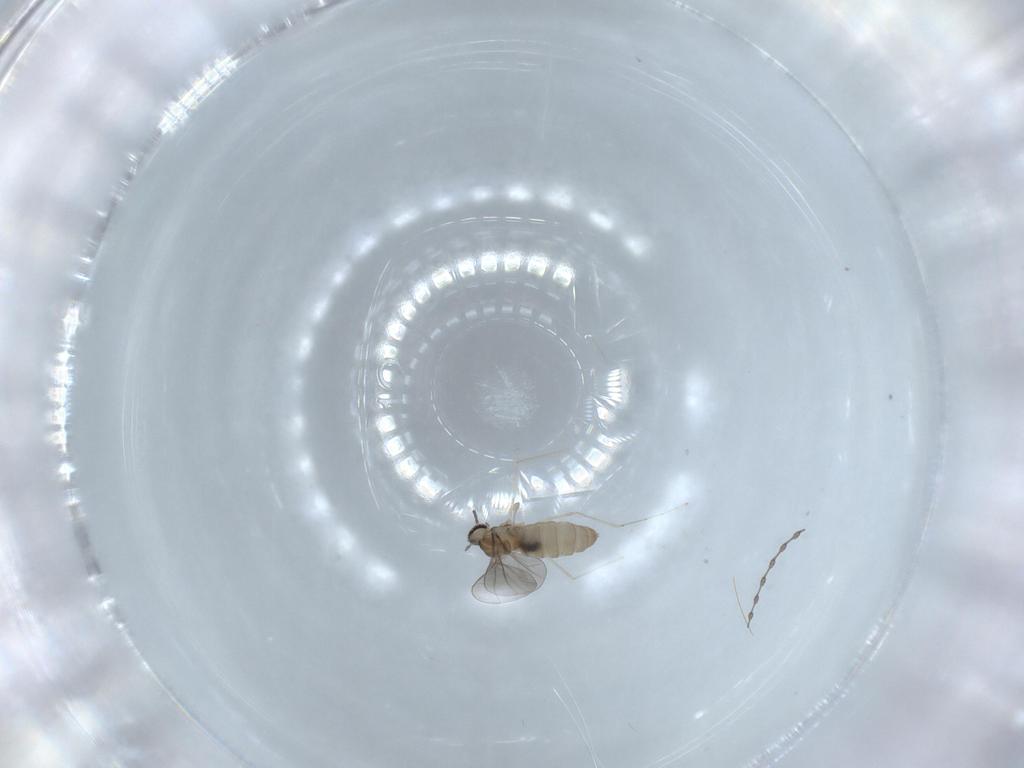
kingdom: Animalia
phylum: Arthropoda
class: Insecta
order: Diptera
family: Cecidomyiidae
